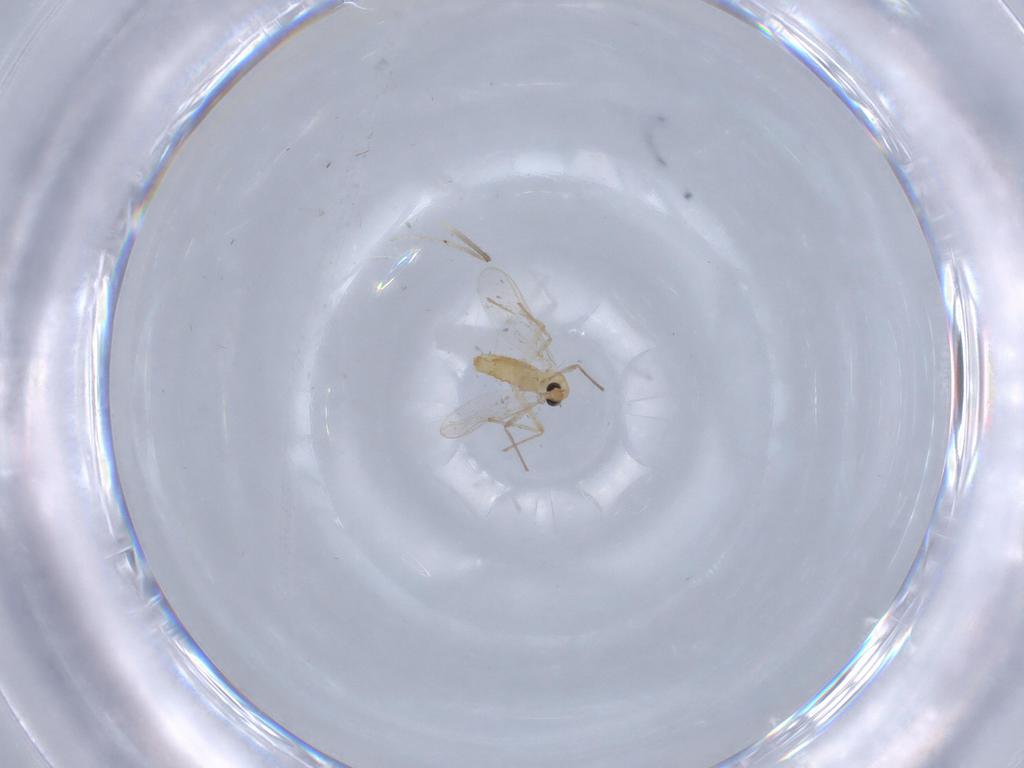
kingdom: Animalia
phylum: Arthropoda
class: Insecta
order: Diptera
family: Chironomidae
